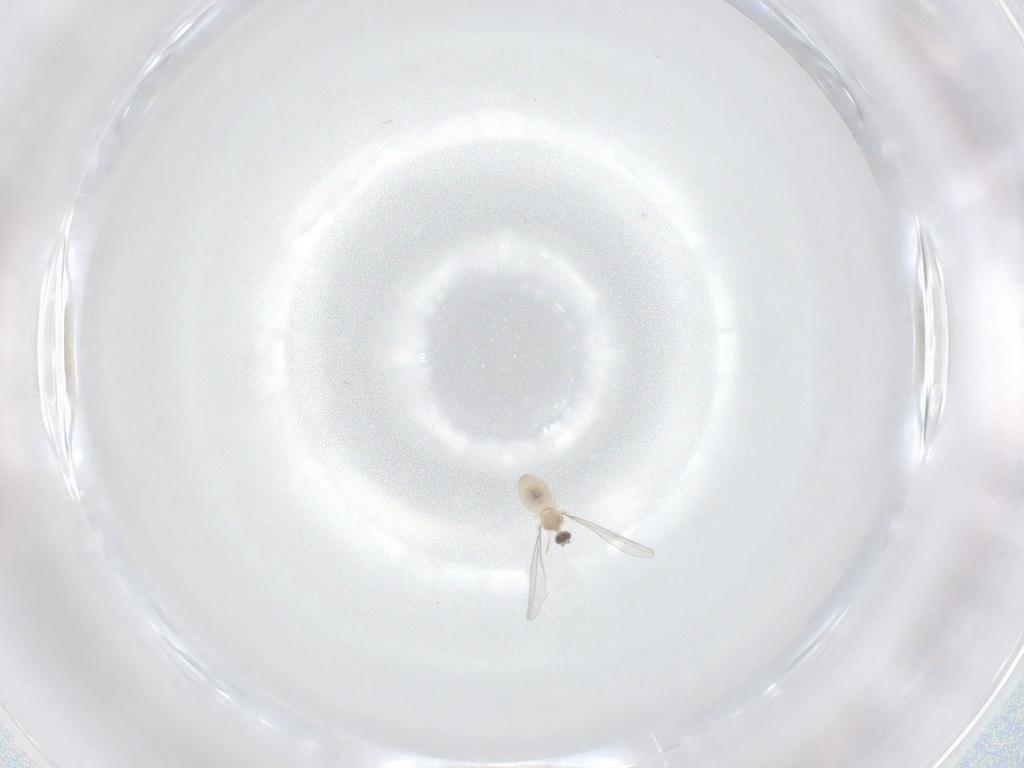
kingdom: Animalia
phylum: Arthropoda
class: Insecta
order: Diptera
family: Cecidomyiidae
